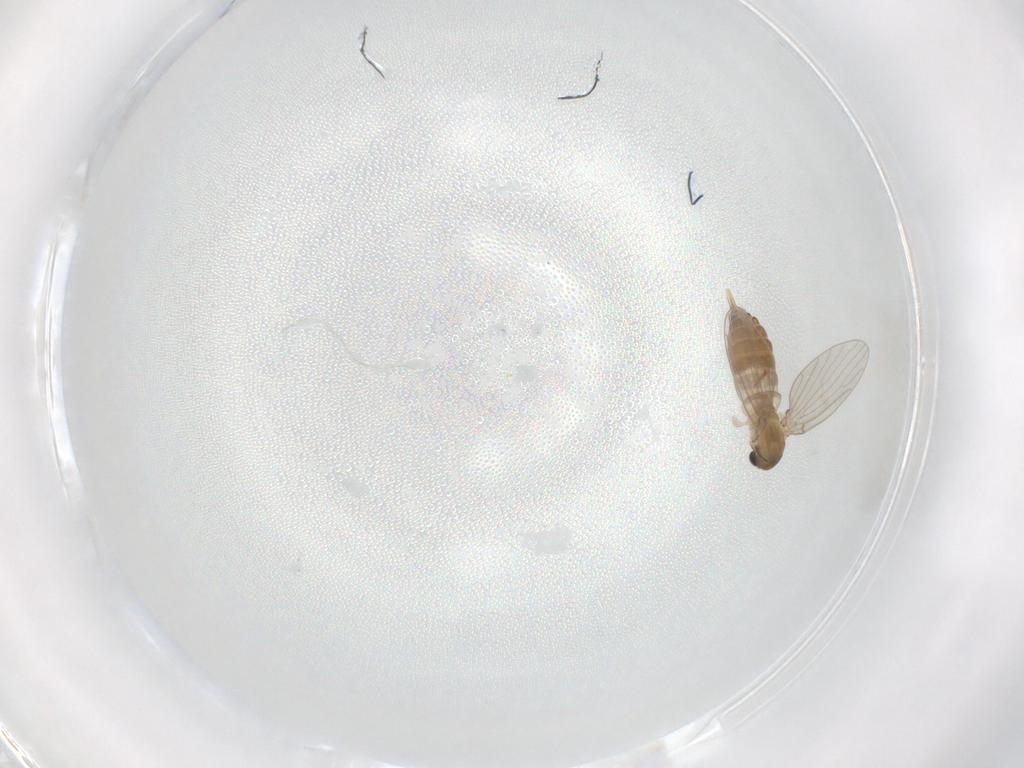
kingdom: Animalia
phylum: Arthropoda
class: Insecta
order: Diptera
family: Psychodidae
